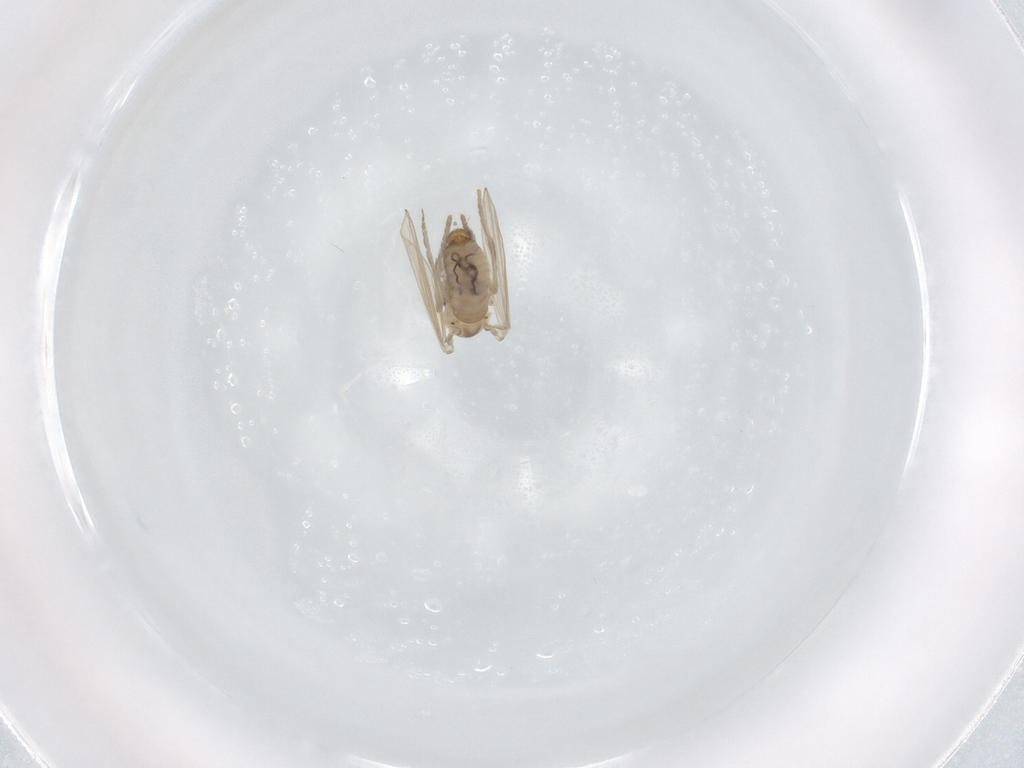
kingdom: Animalia
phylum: Arthropoda
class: Insecta
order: Diptera
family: Psychodidae
